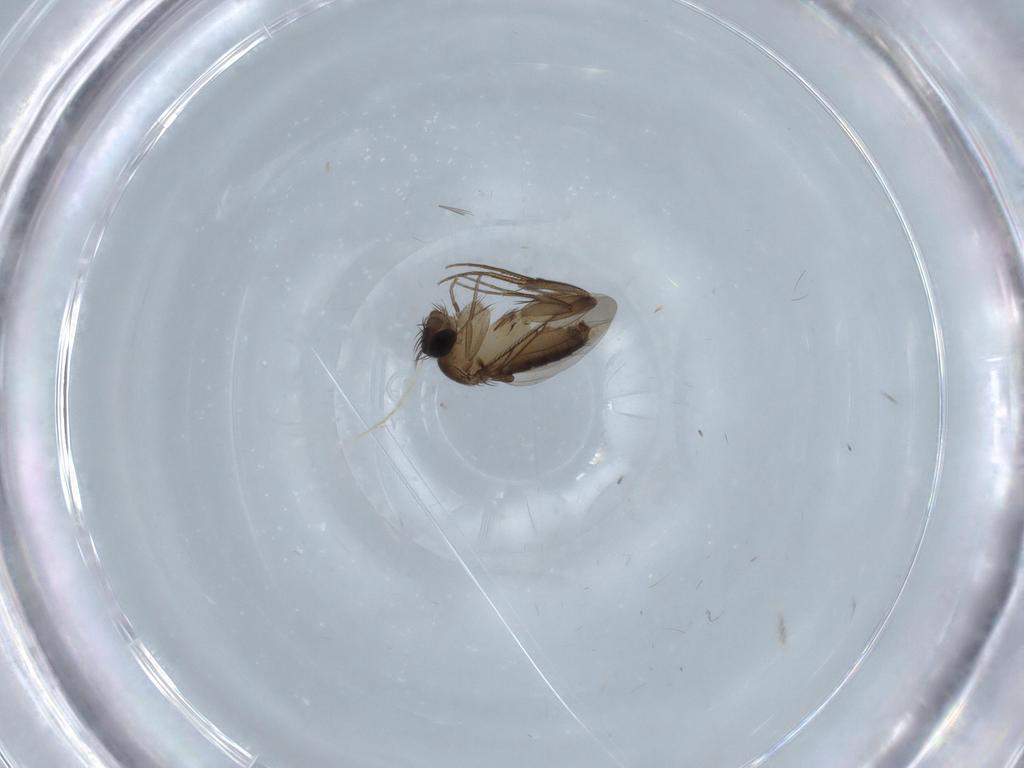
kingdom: Animalia
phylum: Arthropoda
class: Insecta
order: Diptera
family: Phoridae
